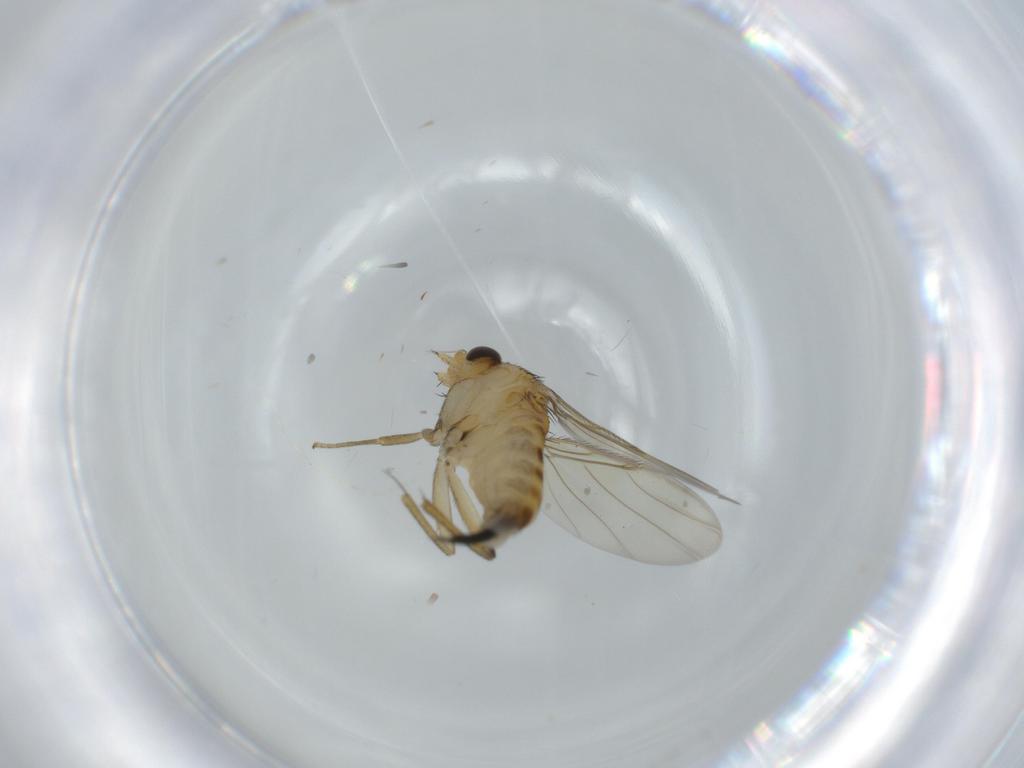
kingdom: Animalia
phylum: Arthropoda
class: Insecta
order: Diptera
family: Phoridae
